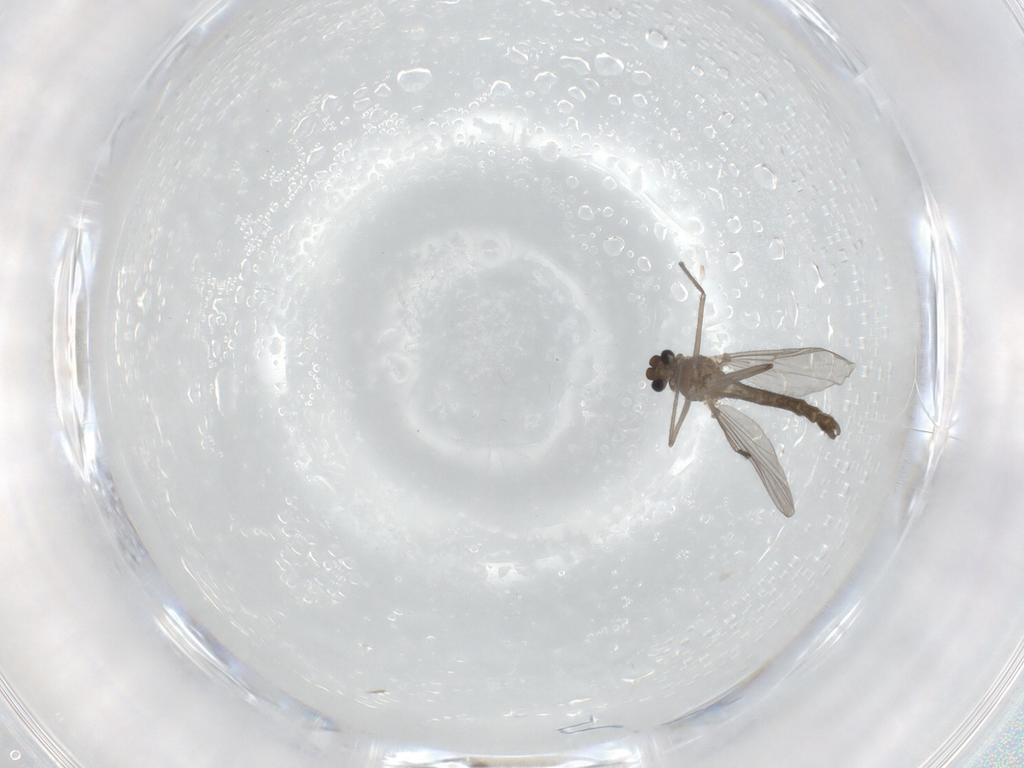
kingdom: Animalia
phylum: Arthropoda
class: Insecta
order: Diptera
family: Chironomidae
